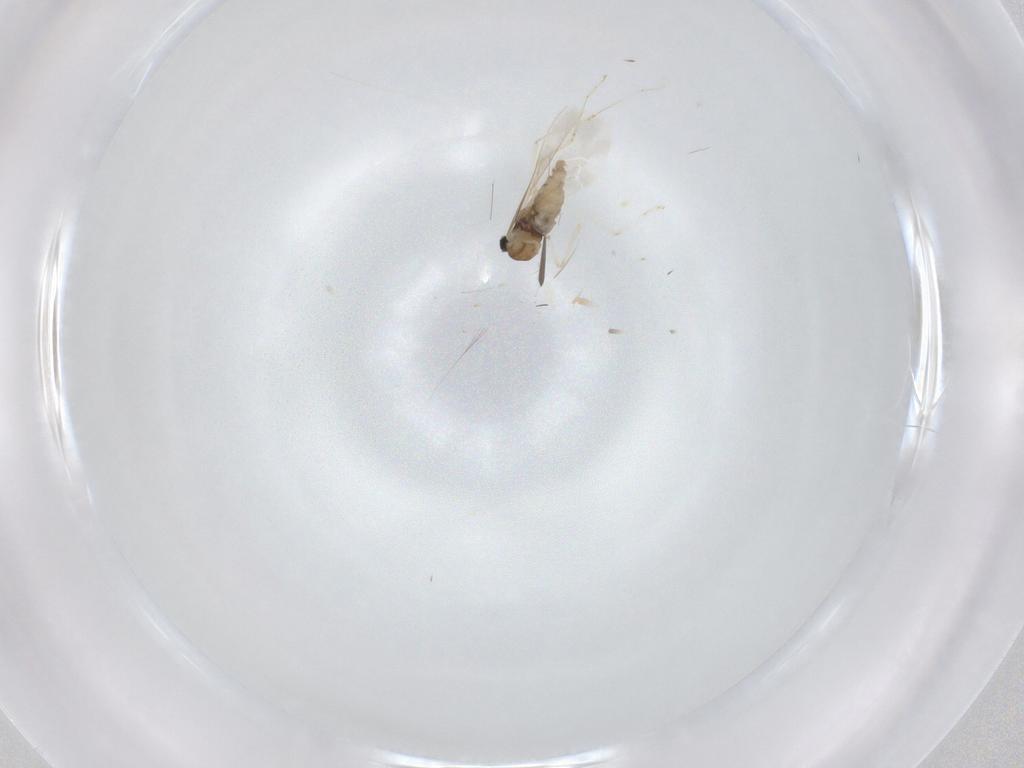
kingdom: Animalia
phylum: Arthropoda
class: Insecta
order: Diptera
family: Cecidomyiidae
